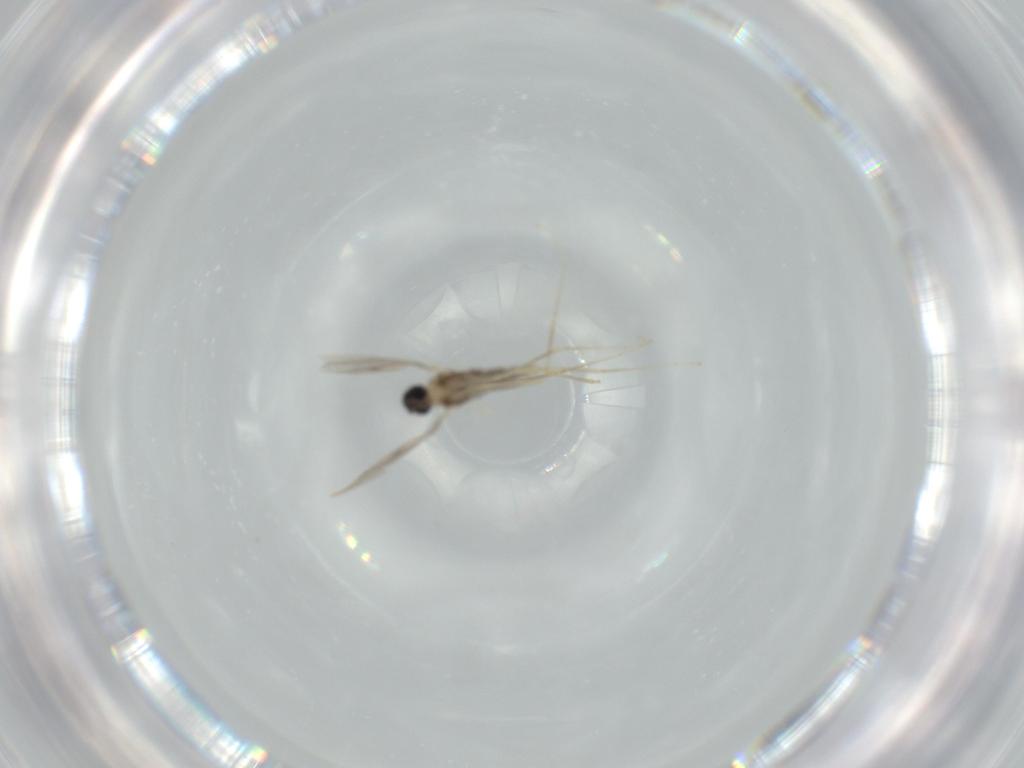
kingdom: Animalia
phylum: Arthropoda
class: Insecta
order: Diptera
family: Cecidomyiidae
